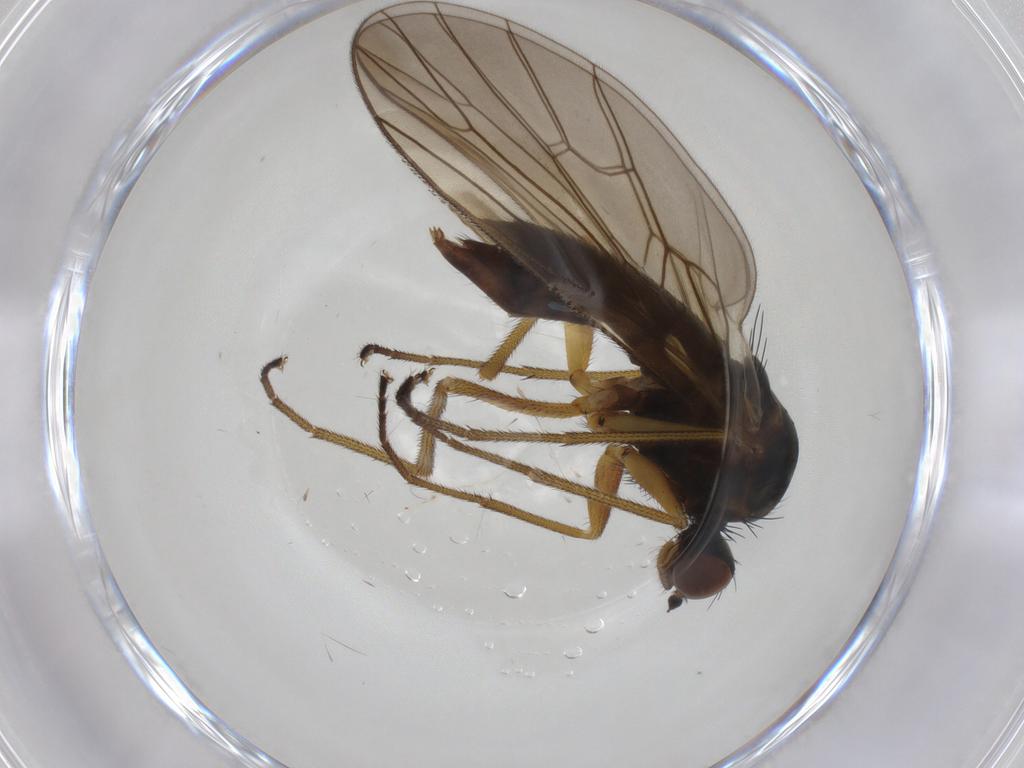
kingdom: Animalia
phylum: Arthropoda
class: Insecta
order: Diptera
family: Brachystomatidae
